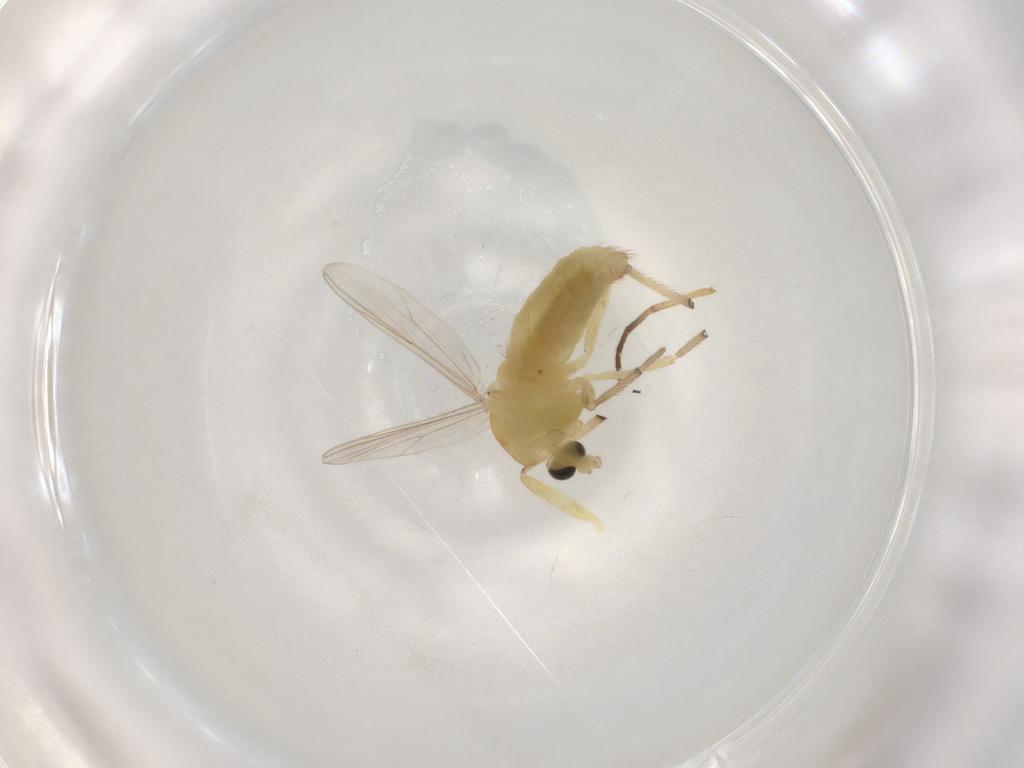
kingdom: Animalia
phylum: Arthropoda
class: Insecta
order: Diptera
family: Chironomidae
